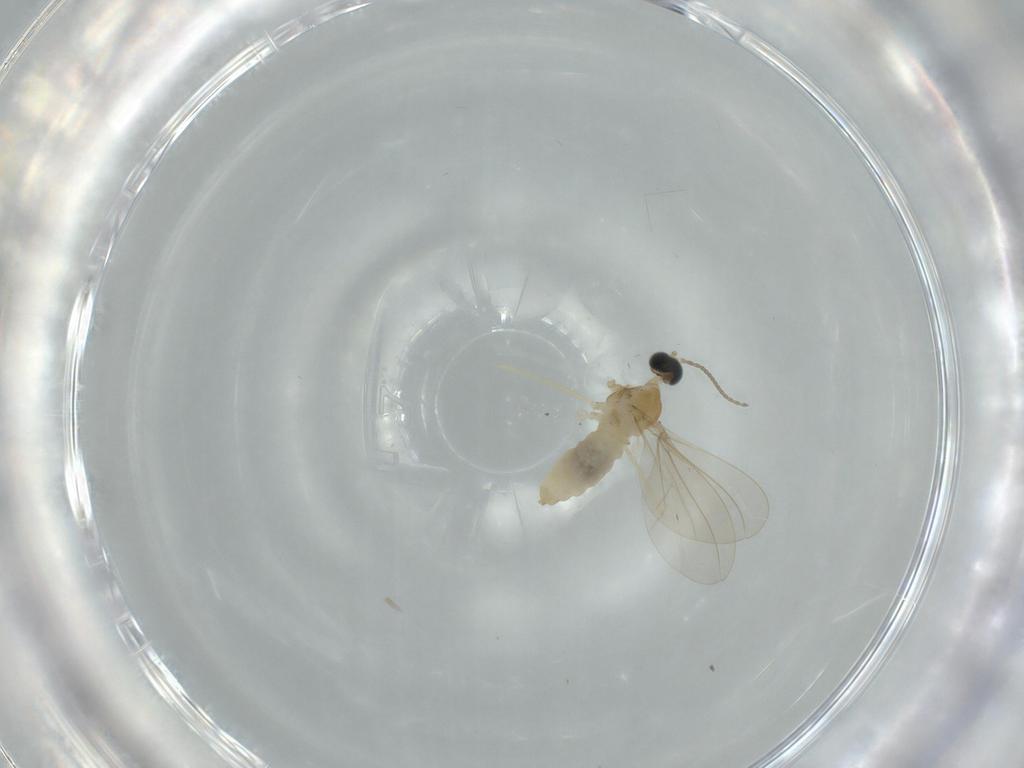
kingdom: Animalia
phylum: Arthropoda
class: Insecta
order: Diptera
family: Cecidomyiidae
